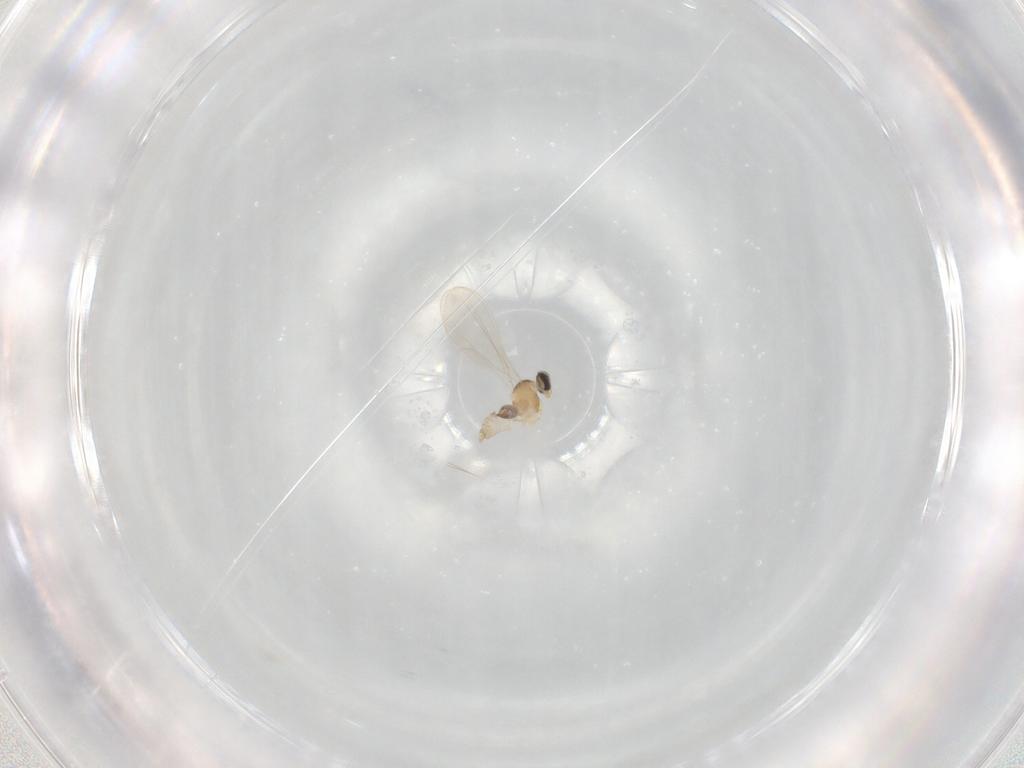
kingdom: Animalia
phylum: Arthropoda
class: Insecta
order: Diptera
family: Cecidomyiidae
